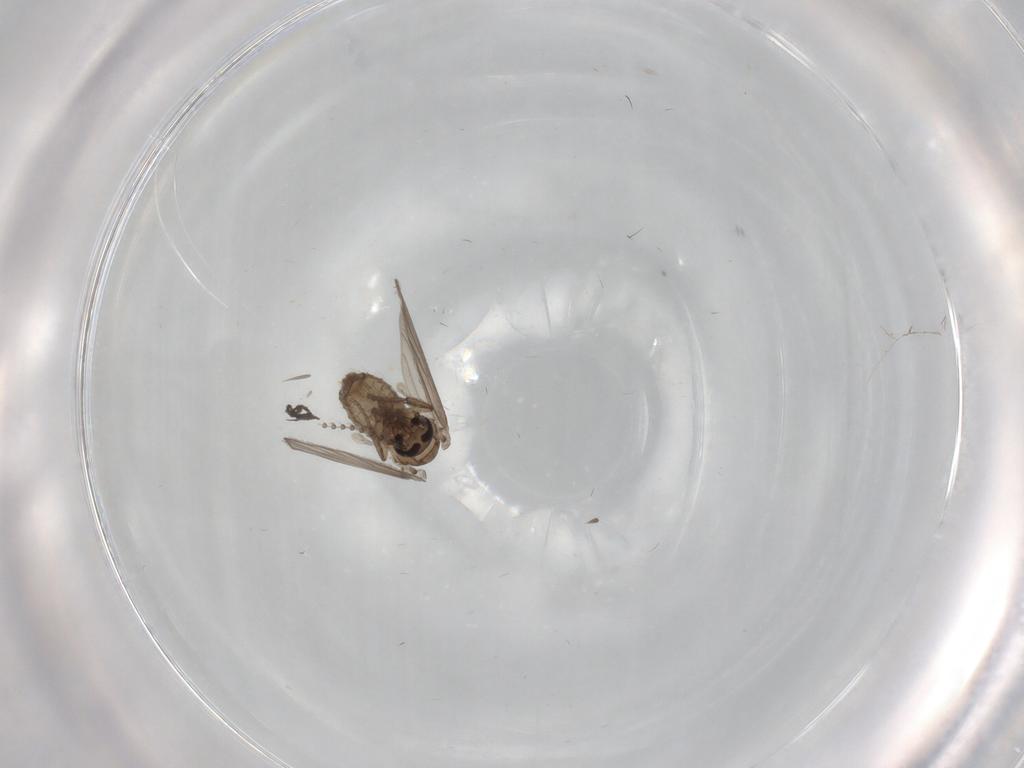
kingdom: Animalia
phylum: Arthropoda
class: Insecta
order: Diptera
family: Psychodidae
